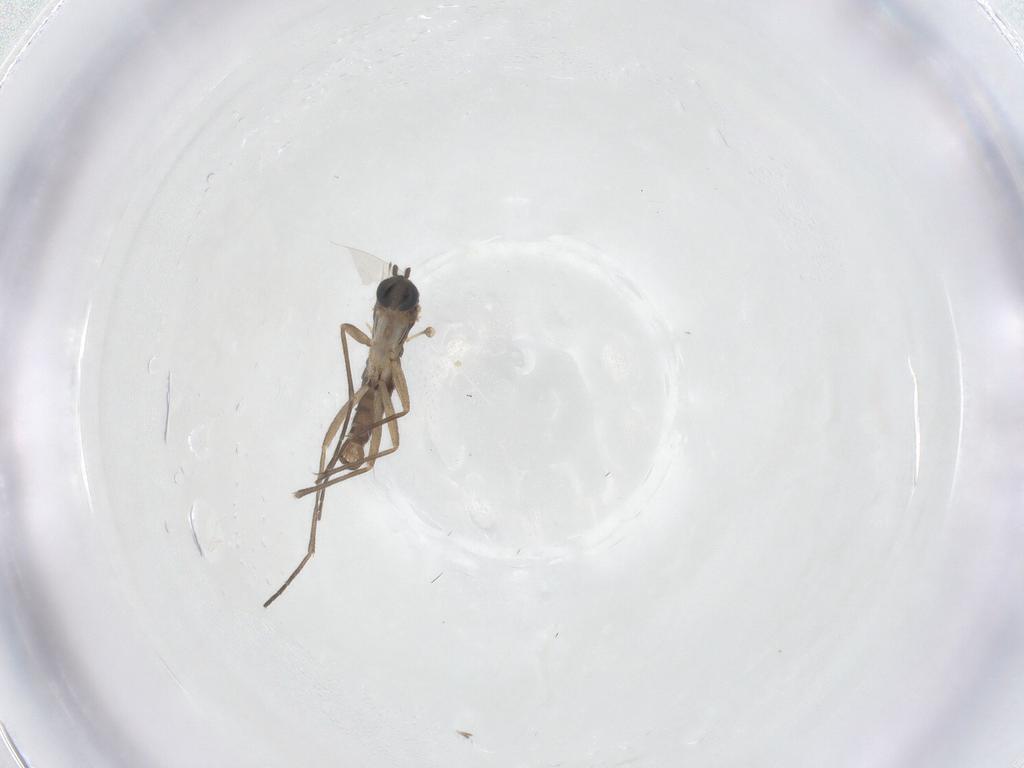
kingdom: Animalia
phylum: Arthropoda
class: Insecta
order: Diptera
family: Sciaridae
